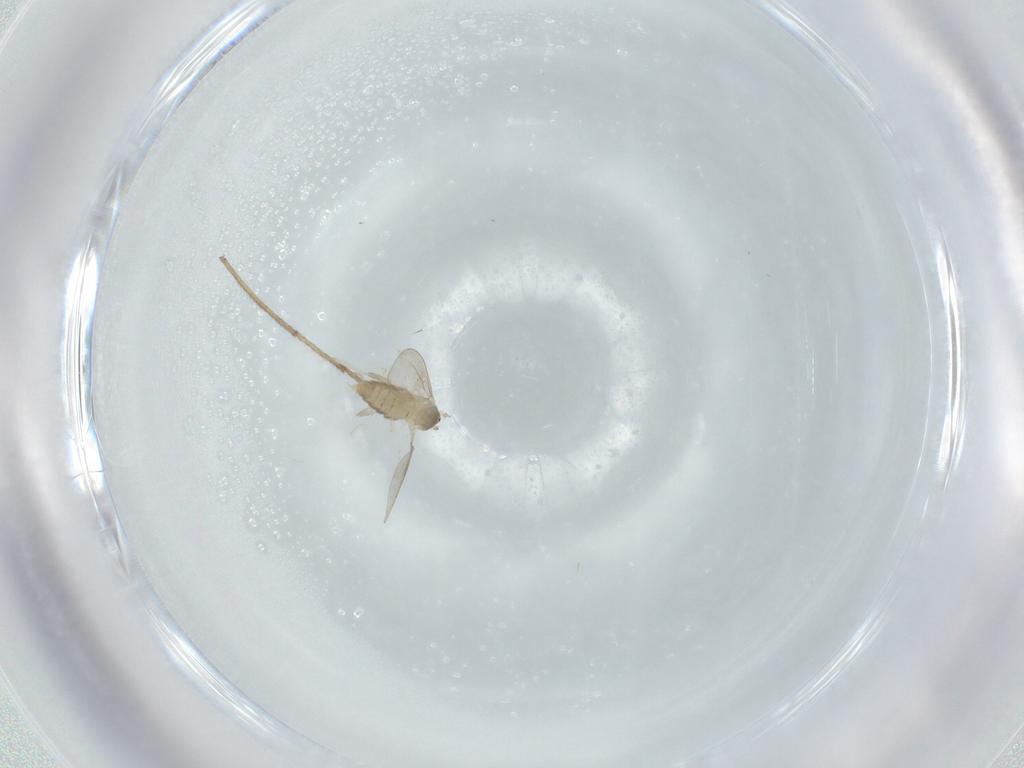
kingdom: Animalia
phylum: Arthropoda
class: Insecta
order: Diptera
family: Cecidomyiidae
